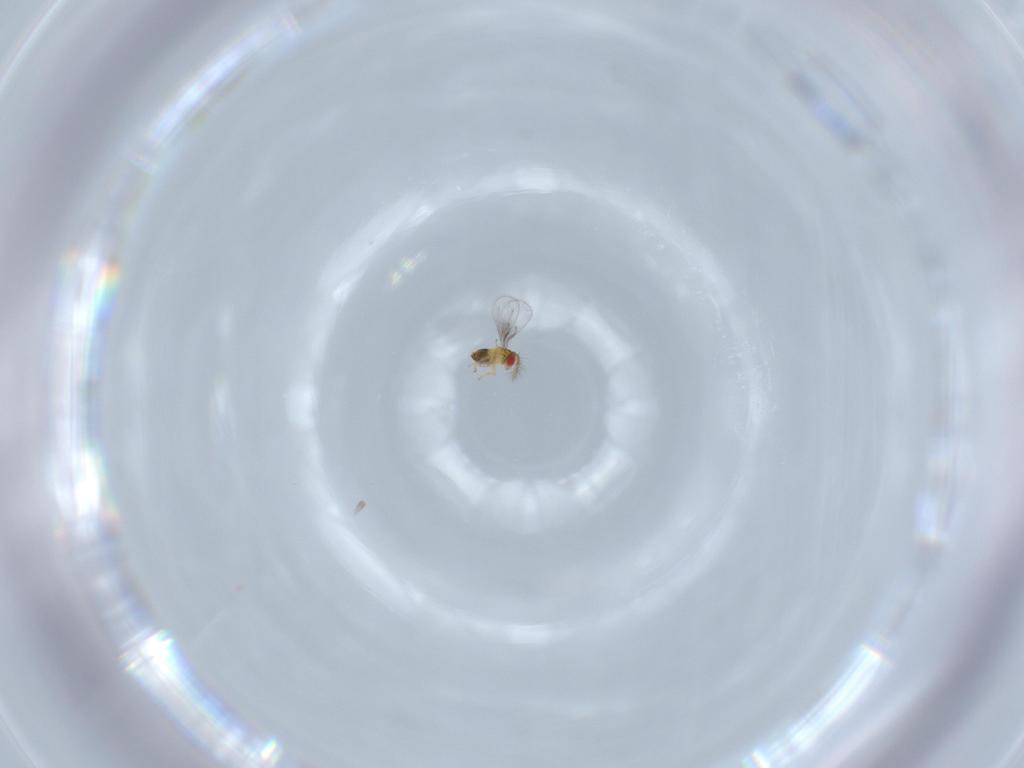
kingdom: Animalia
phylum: Arthropoda
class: Insecta
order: Hymenoptera
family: Trichogrammatidae
